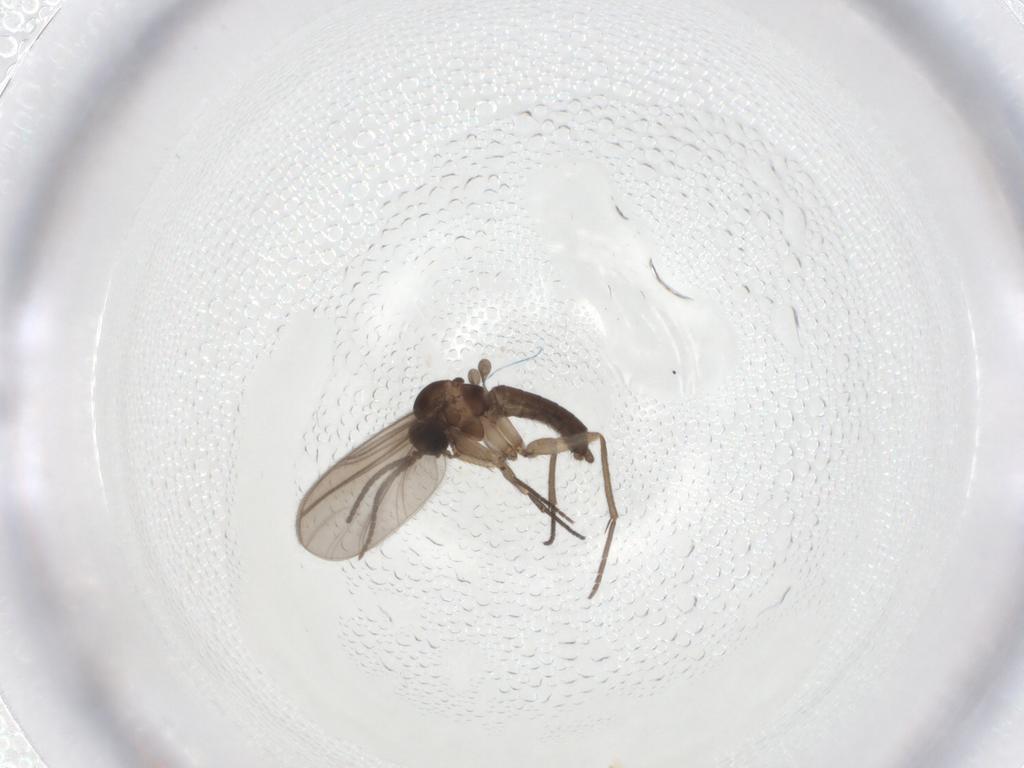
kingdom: Animalia
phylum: Arthropoda
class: Insecta
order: Diptera
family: Sciaridae
